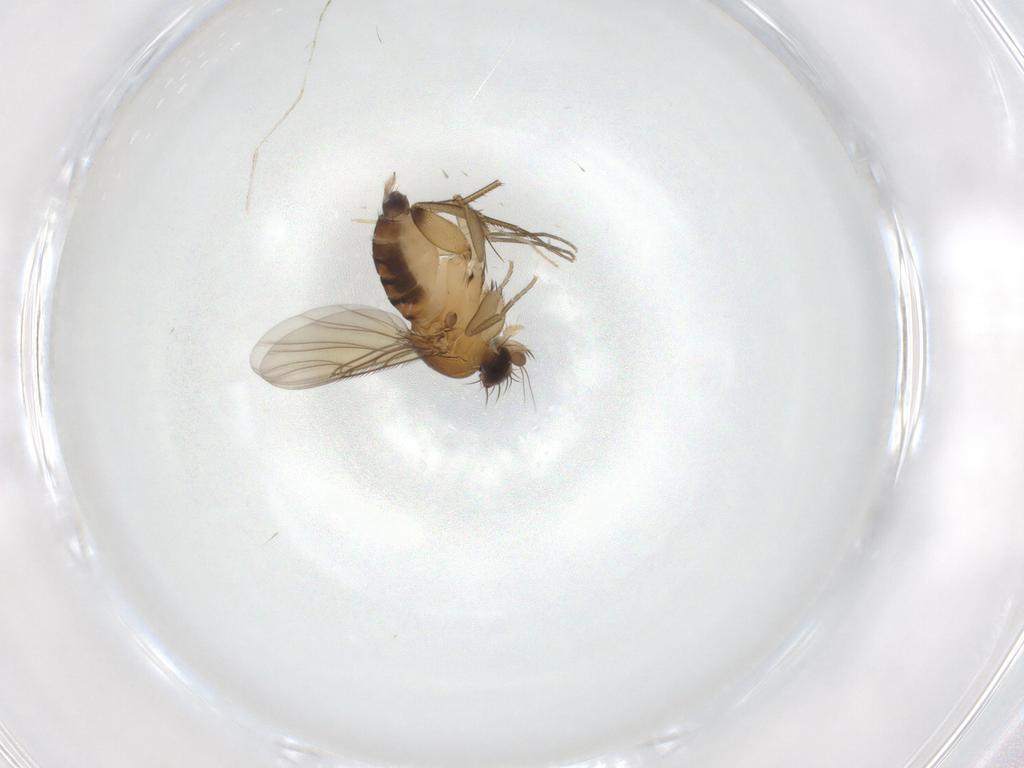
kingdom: Animalia
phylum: Arthropoda
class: Insecta
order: Diptera
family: Phoridae
